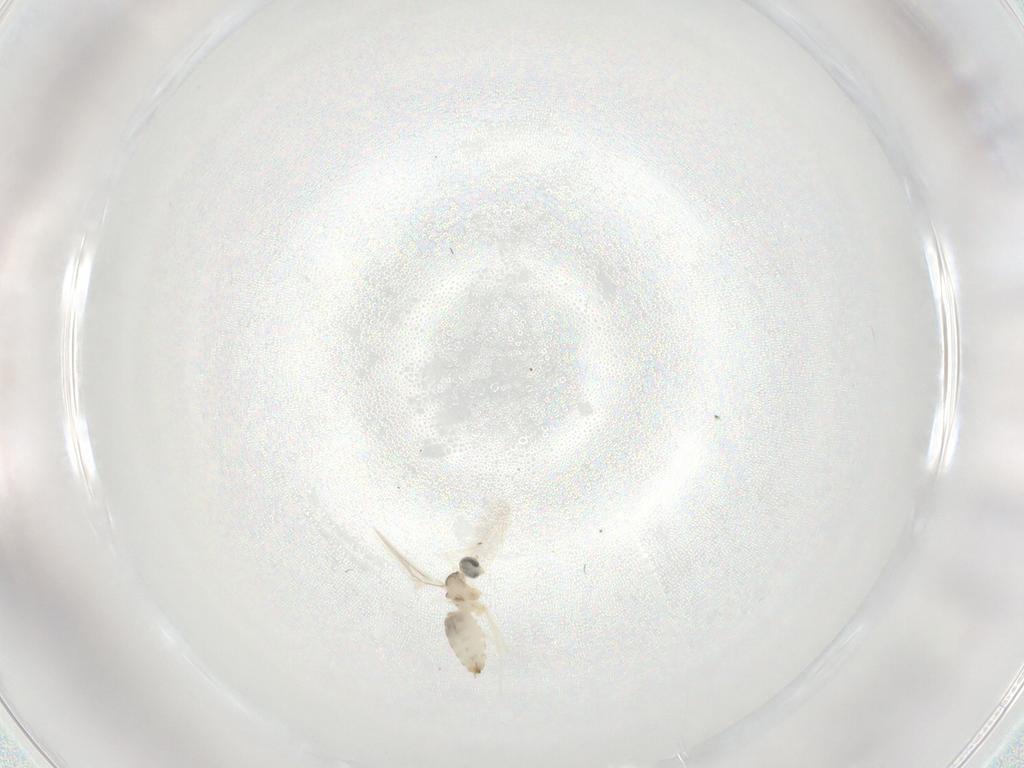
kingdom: Animalia
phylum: Arthropoda
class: Insecta
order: Diptera
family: Cecidomyiidae
